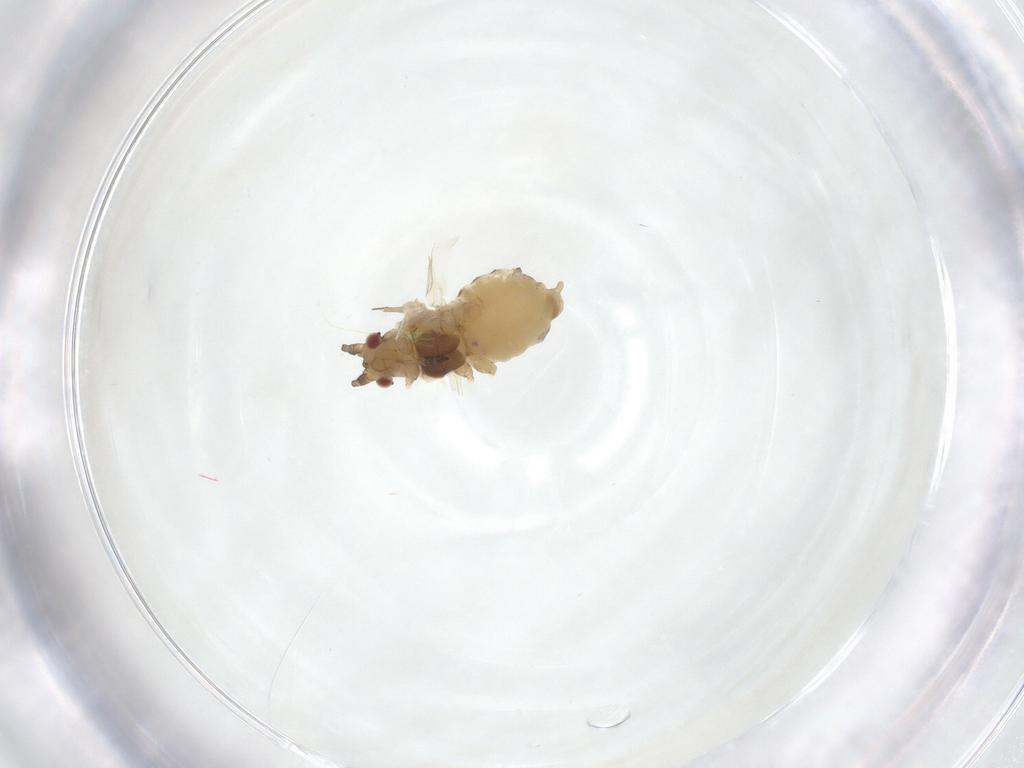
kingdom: Animalia
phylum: Arthropoda
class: Insecta
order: Hemiptera
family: Aphididae
